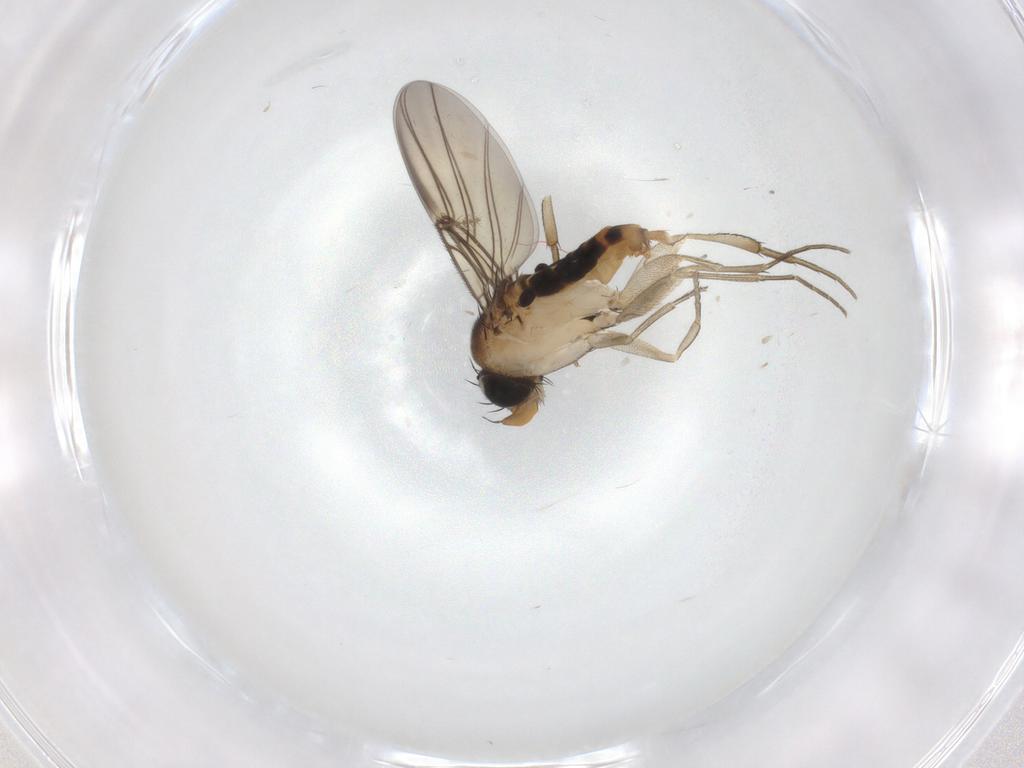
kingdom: Animalia
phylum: Arthropoda
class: Insecta
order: Diptera
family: Phoridae
